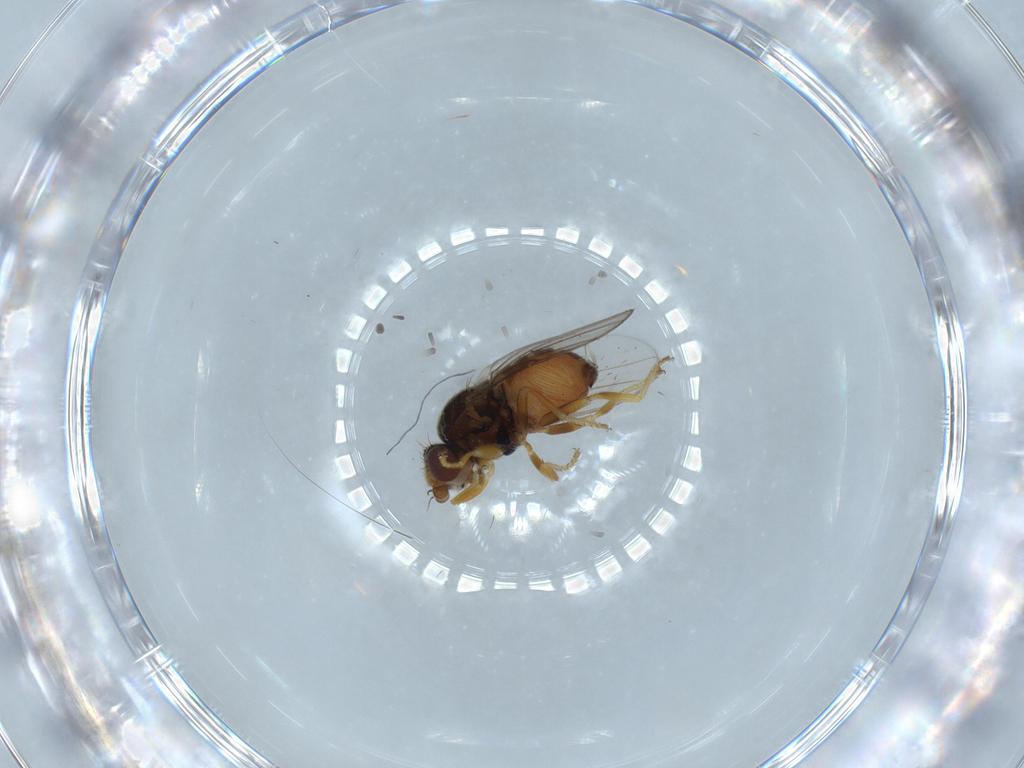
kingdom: Animalia
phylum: Arthropoda
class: Insecta
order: Diptera
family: Chloropidae
